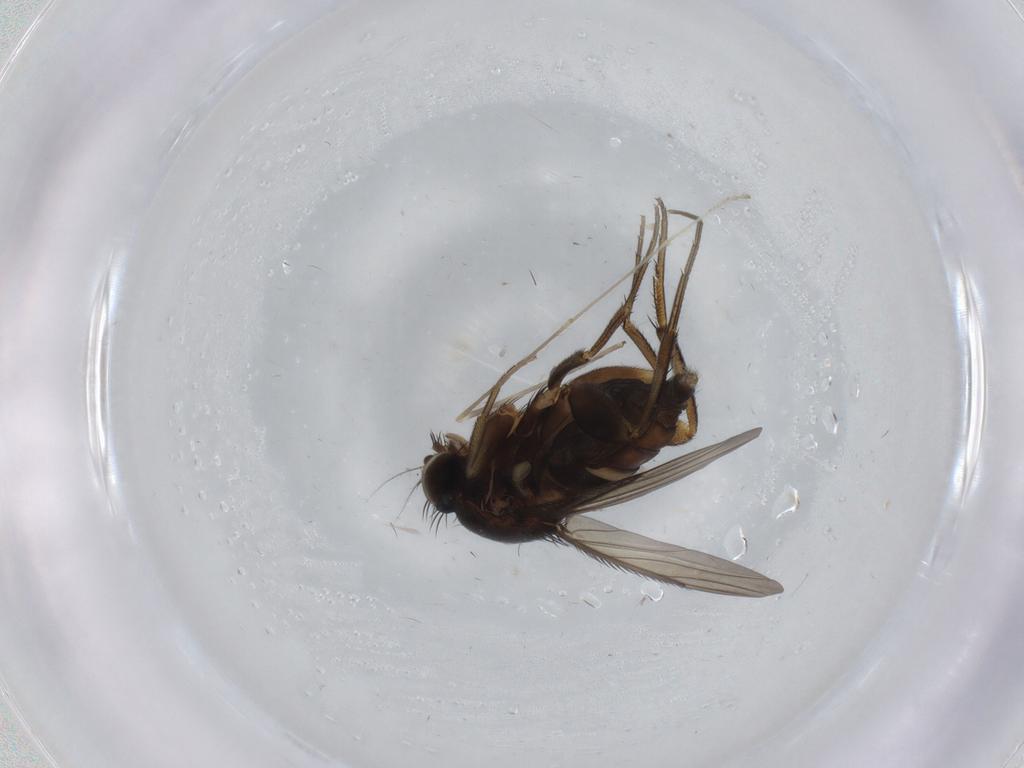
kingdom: Animalia
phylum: Arthropoda
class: Insecta
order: Diptera
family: Phoridae
